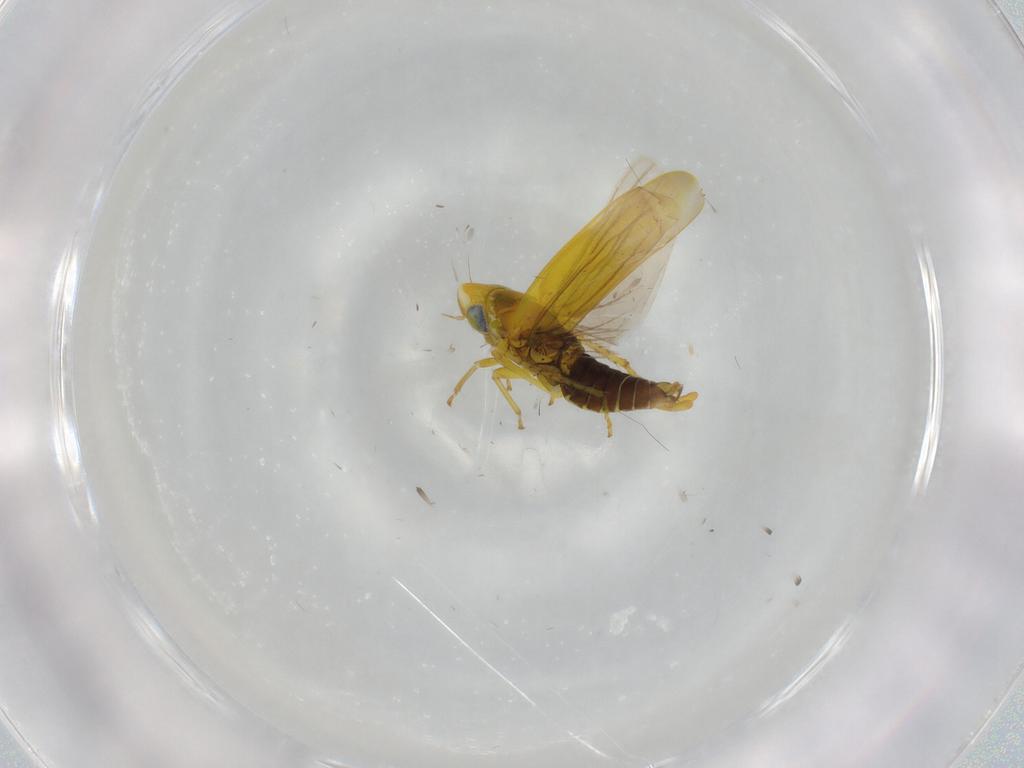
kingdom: Animalia
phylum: Arthropoda
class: Insecta
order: Hemiptera
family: Cicadellidae
